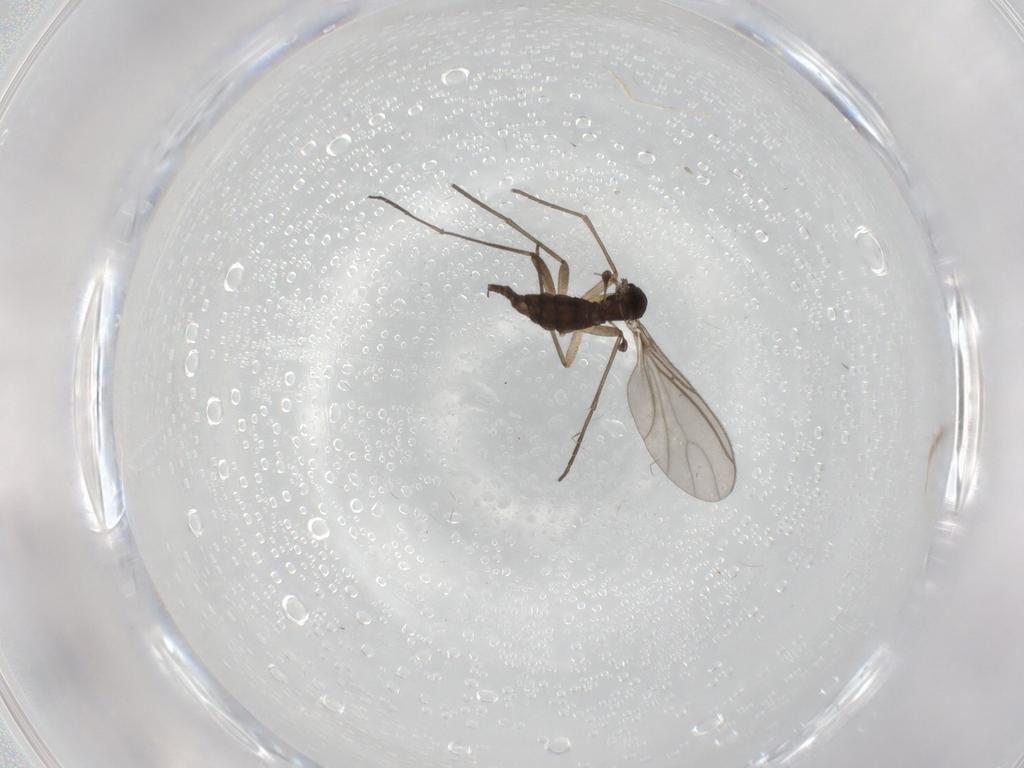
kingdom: Animalia
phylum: Arthropoda
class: Insecta
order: Diptera
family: Sciaridae
